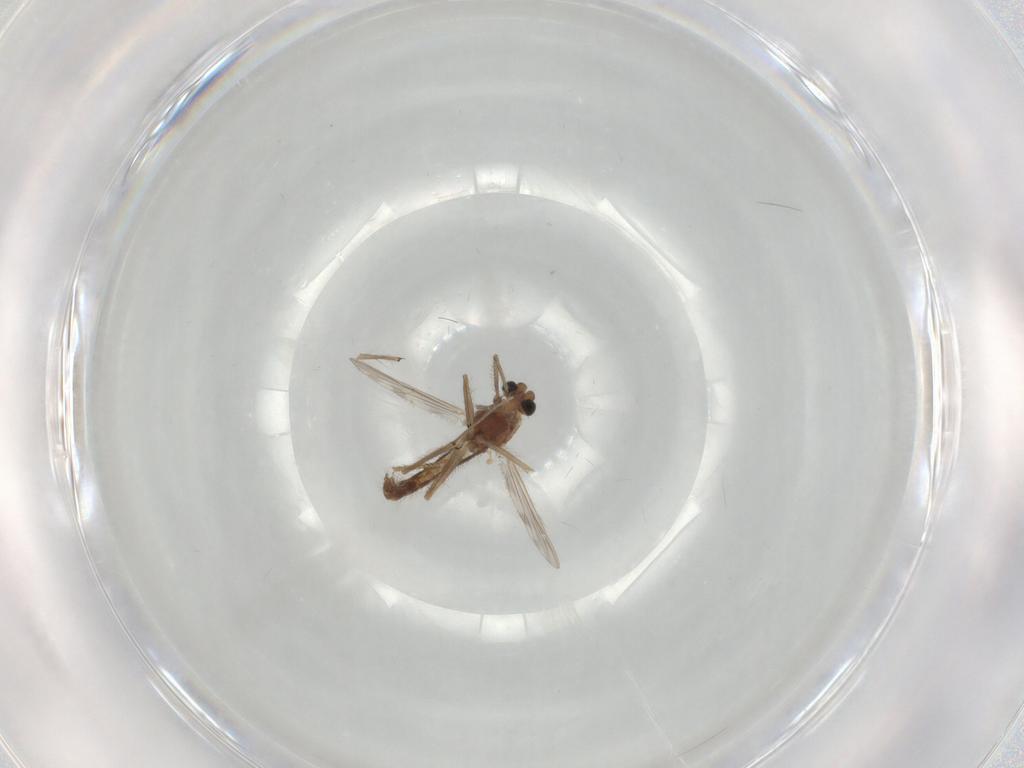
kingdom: Animalia
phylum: Arthropoda
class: Insecta
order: Diptera
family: Chironomidae
